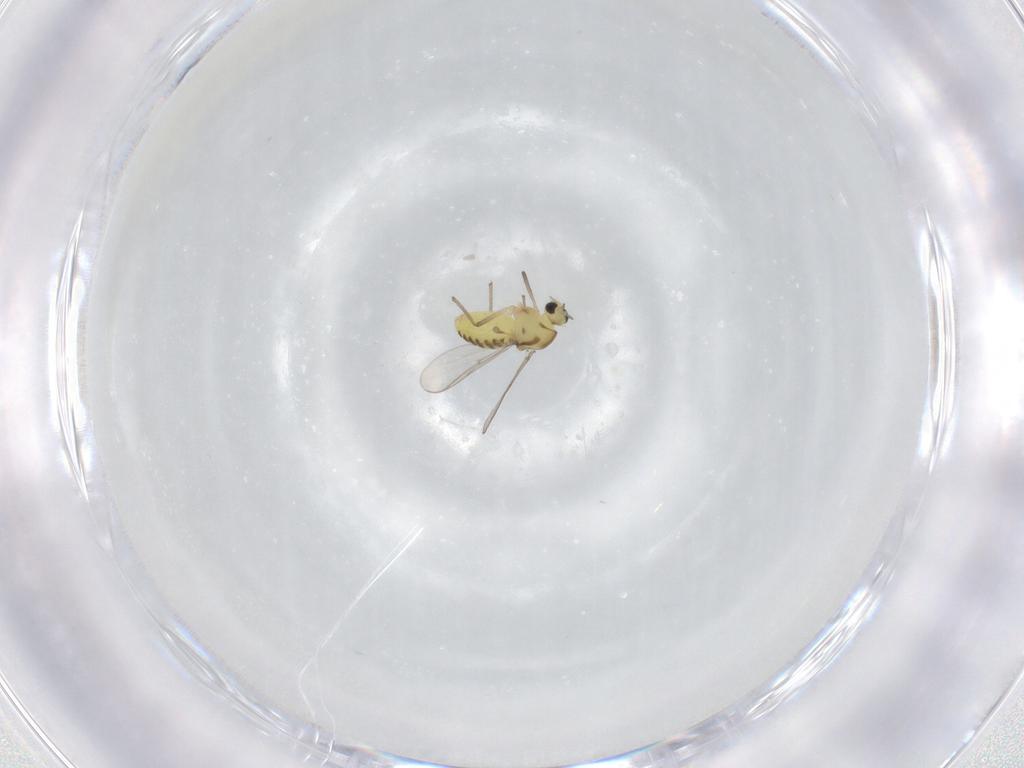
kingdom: Animalia
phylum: Arthropoda
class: Insecta
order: Diptera
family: Chironomidae
